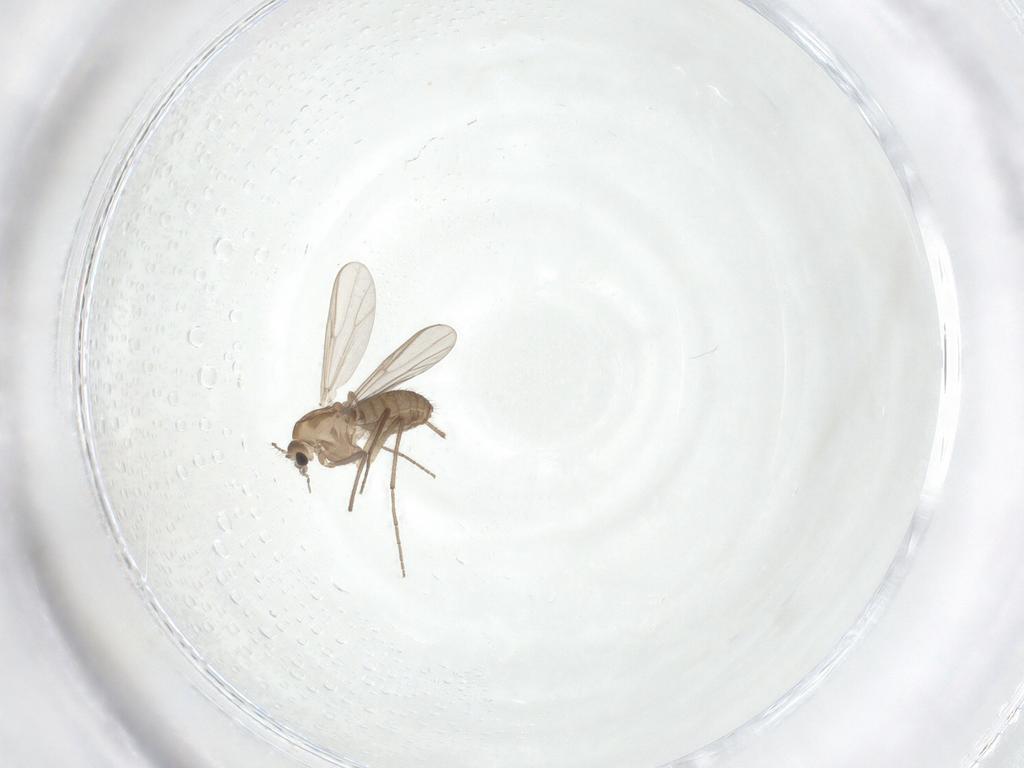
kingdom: Animalia
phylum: Arthropoda
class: Insecta
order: Diptera
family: Chironomidae
